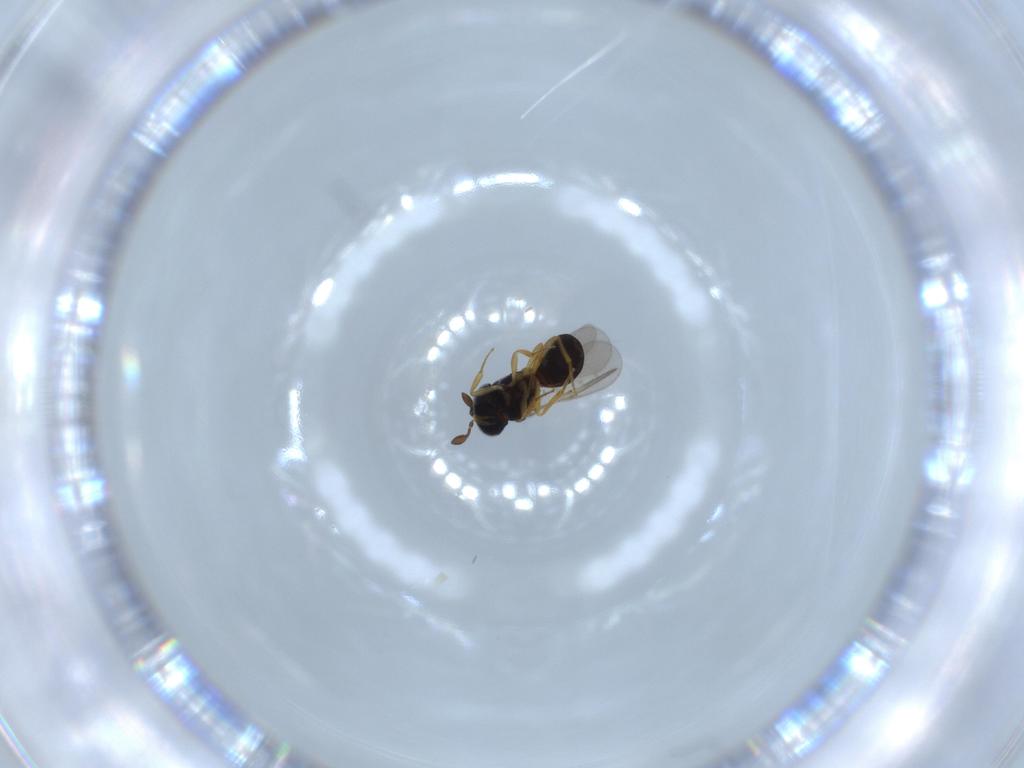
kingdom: Animalia
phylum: Arthropoda
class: Insecta
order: Hymenoptera
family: Scelionidae
